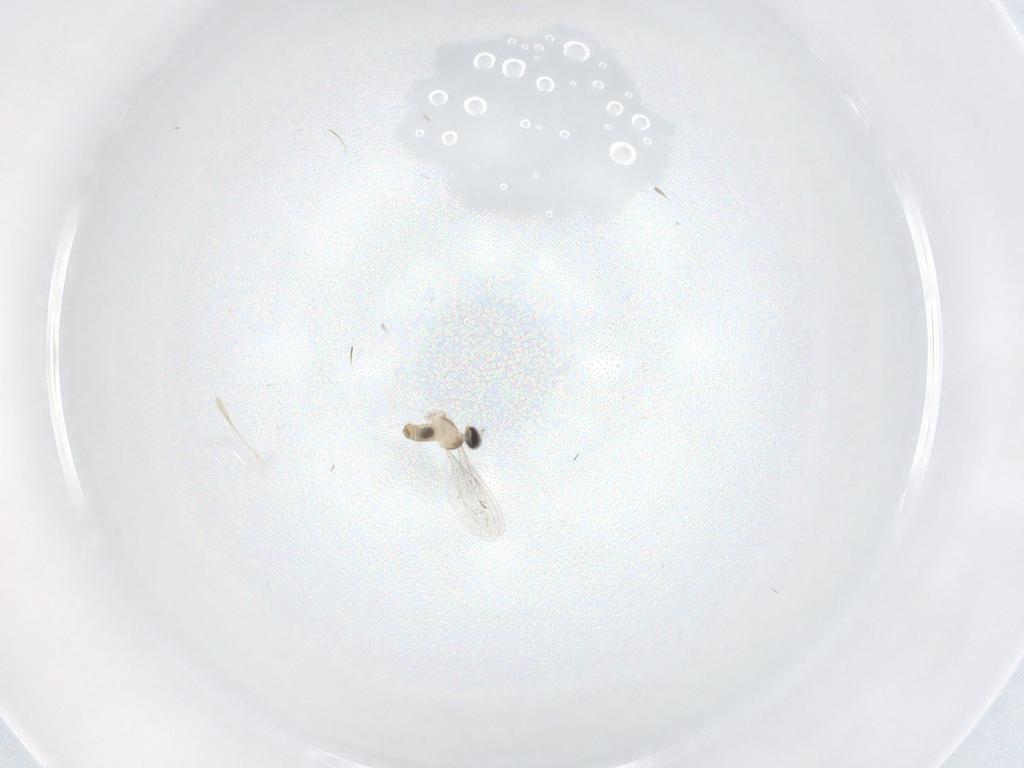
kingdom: Animalia
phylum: Arthropoda
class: Insecta
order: Diptera
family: Cecidomyiidae
